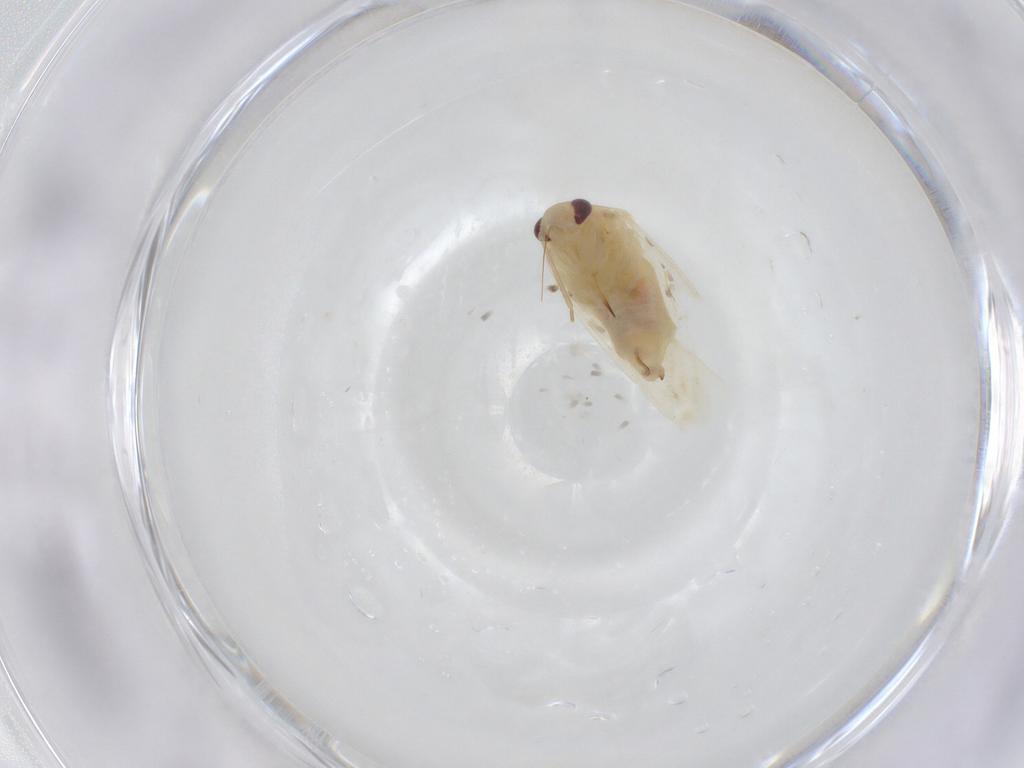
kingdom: Animalia
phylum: Arthropoda
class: Insecta
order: Hemiptera
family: Miridae
